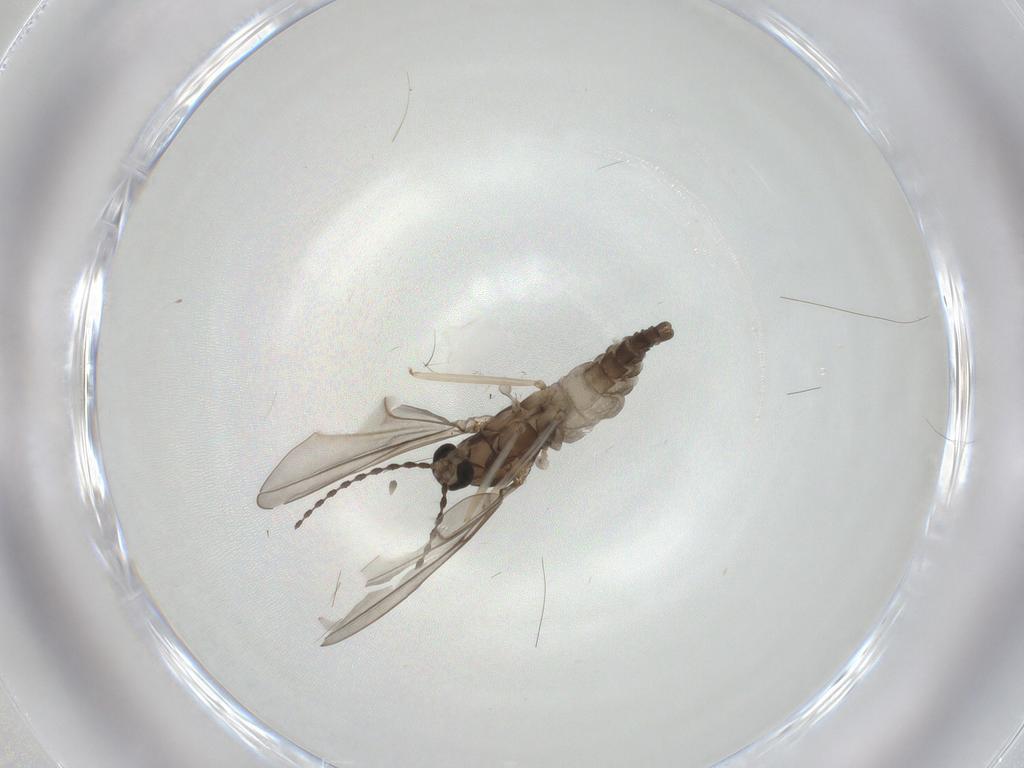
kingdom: Animalia
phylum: Arthropoda
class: Insecta
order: Diptera
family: Cecidomyiidae
